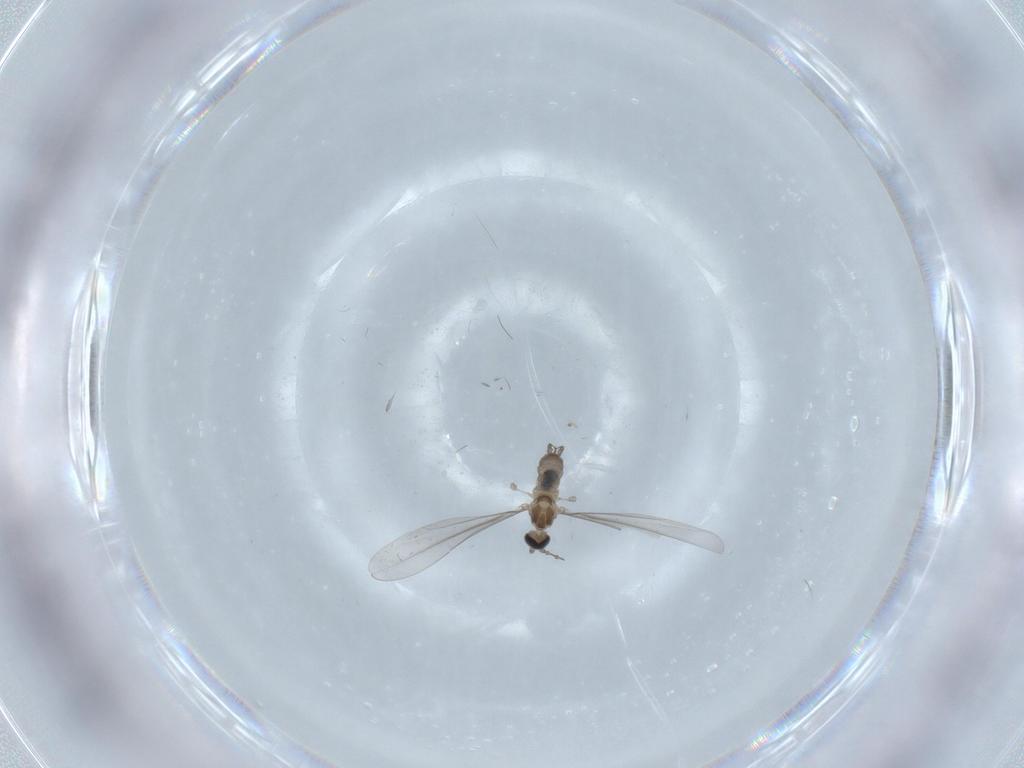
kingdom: Animalia
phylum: Arthropoda
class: Insecta
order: Diptera
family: Cecidomyiidae
